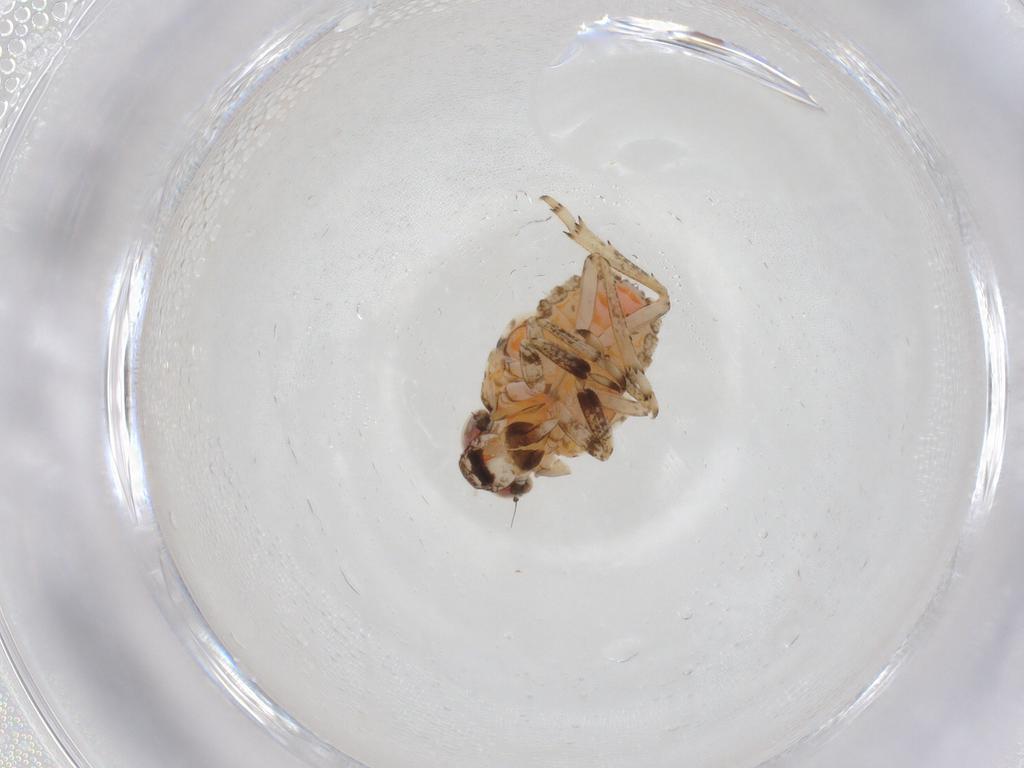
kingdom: Animalia
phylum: Arthropoda
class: Insecta
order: Hemiptera
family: Issidae
